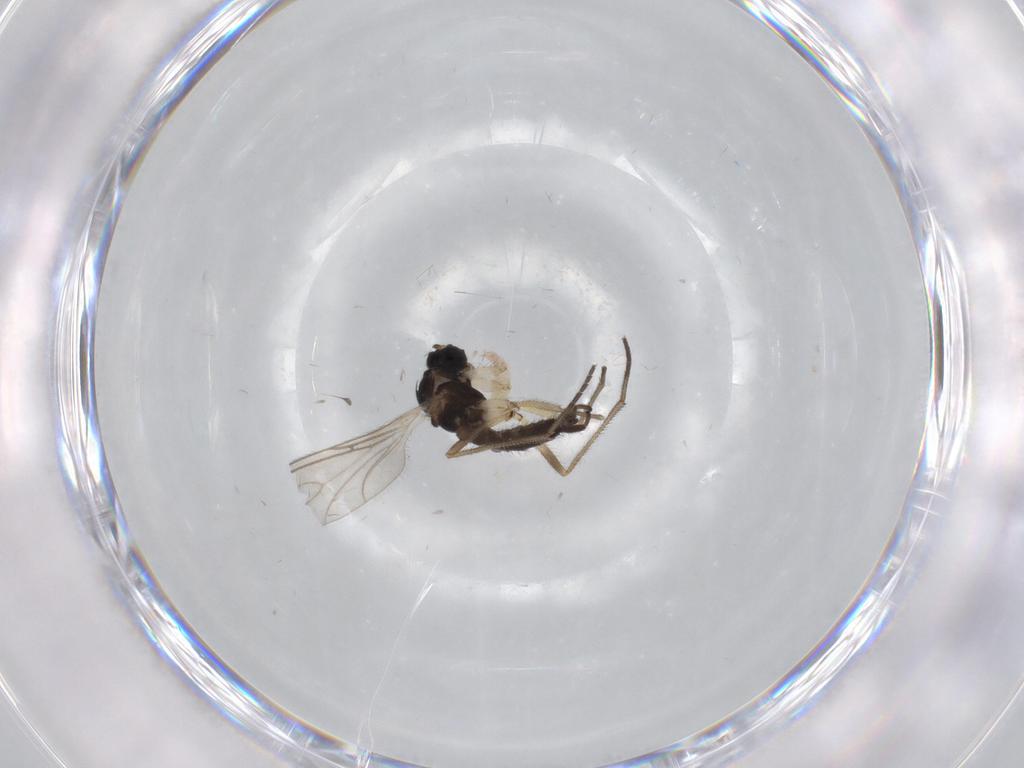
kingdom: Animalia
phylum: Arthropoda
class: Insecta
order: Diptera
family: Sciaridae
